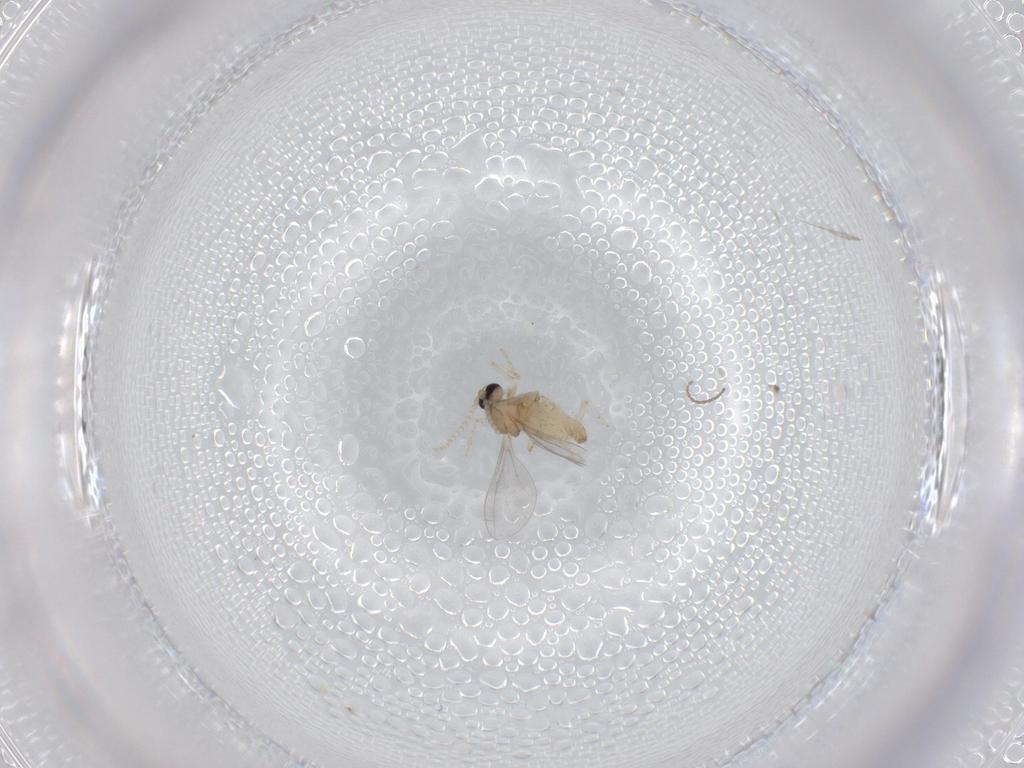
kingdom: Animalia
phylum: Arthropoda
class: Insecta
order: Diptera
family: Cecidomyiidae
